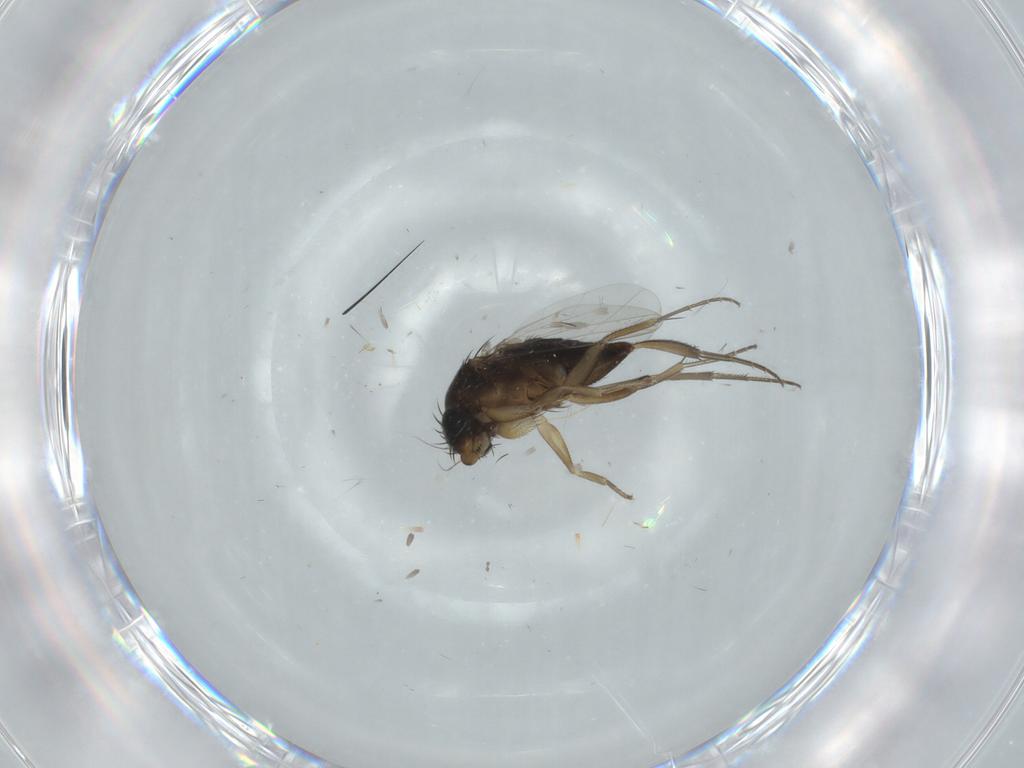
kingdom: Animalia
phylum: Arthropoda
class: Insecta
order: Diptera
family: Phoridae
